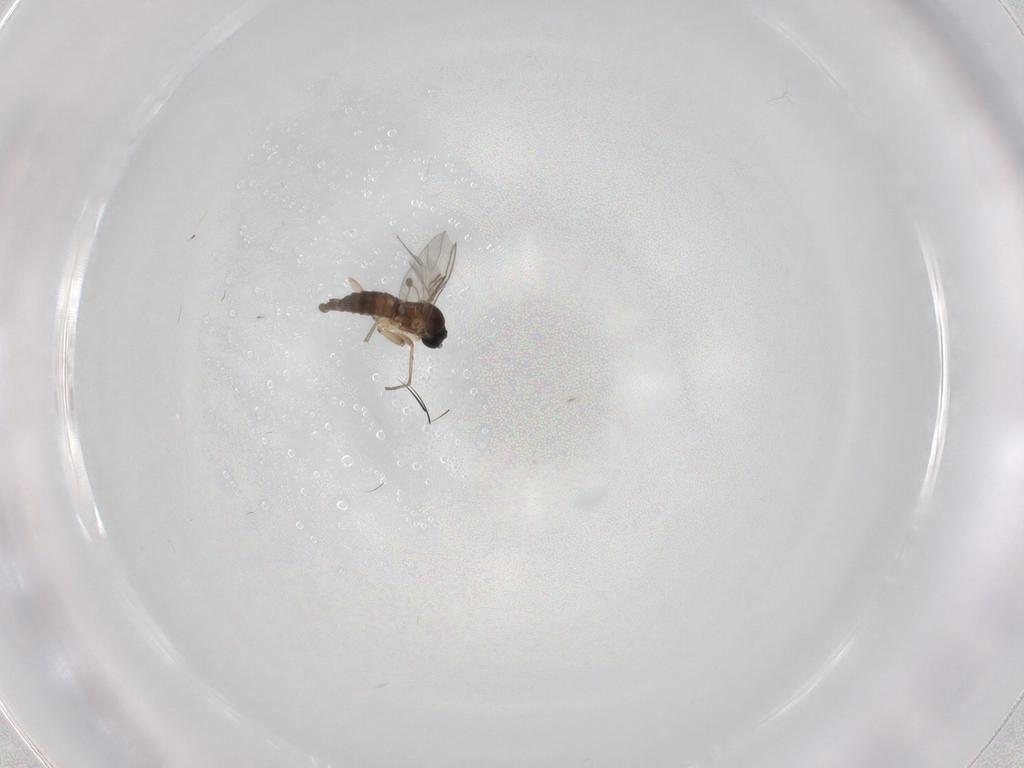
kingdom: Animalia
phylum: Arthropoda
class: Insecta
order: Diptera
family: Sciaridae
